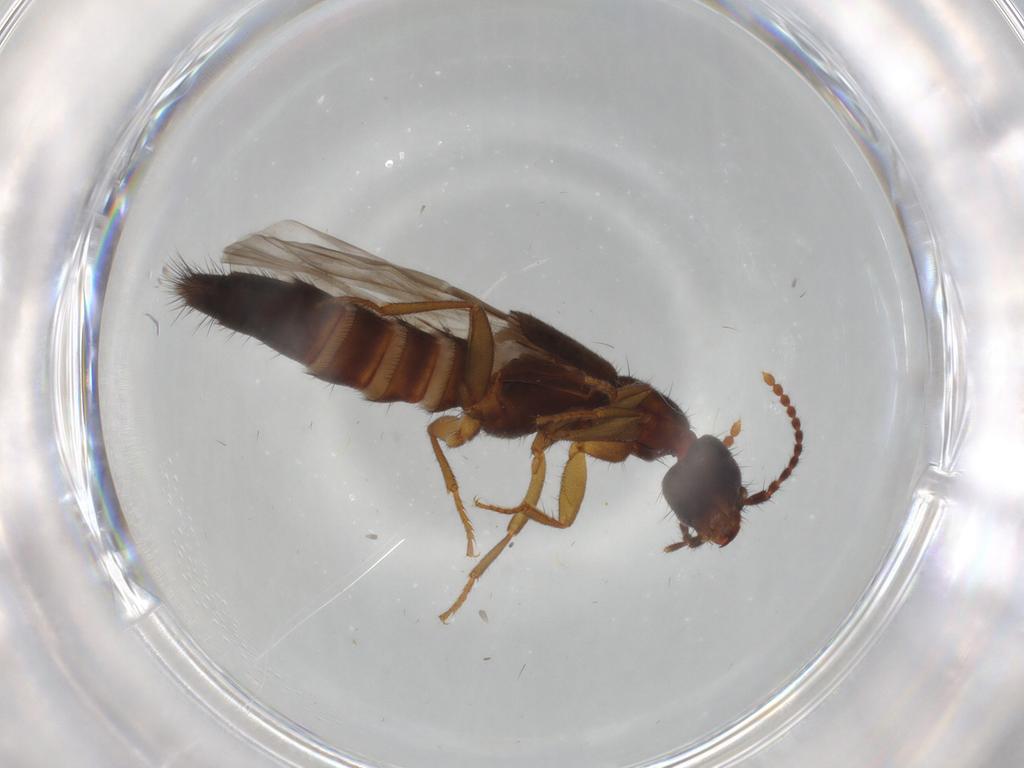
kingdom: Animalia
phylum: Arthropoda
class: Insecta
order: Coleoptera
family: Staphylinidae
